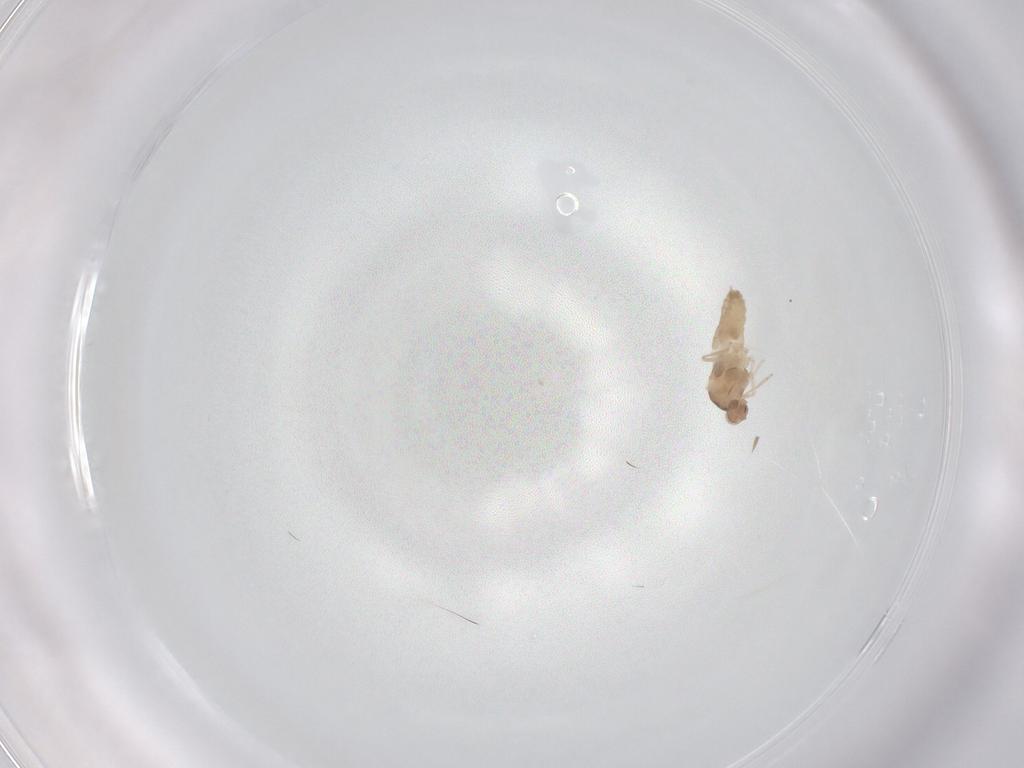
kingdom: Animalia
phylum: Arthropoda
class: Insecta
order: Diptera
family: Cecidomyiidae
